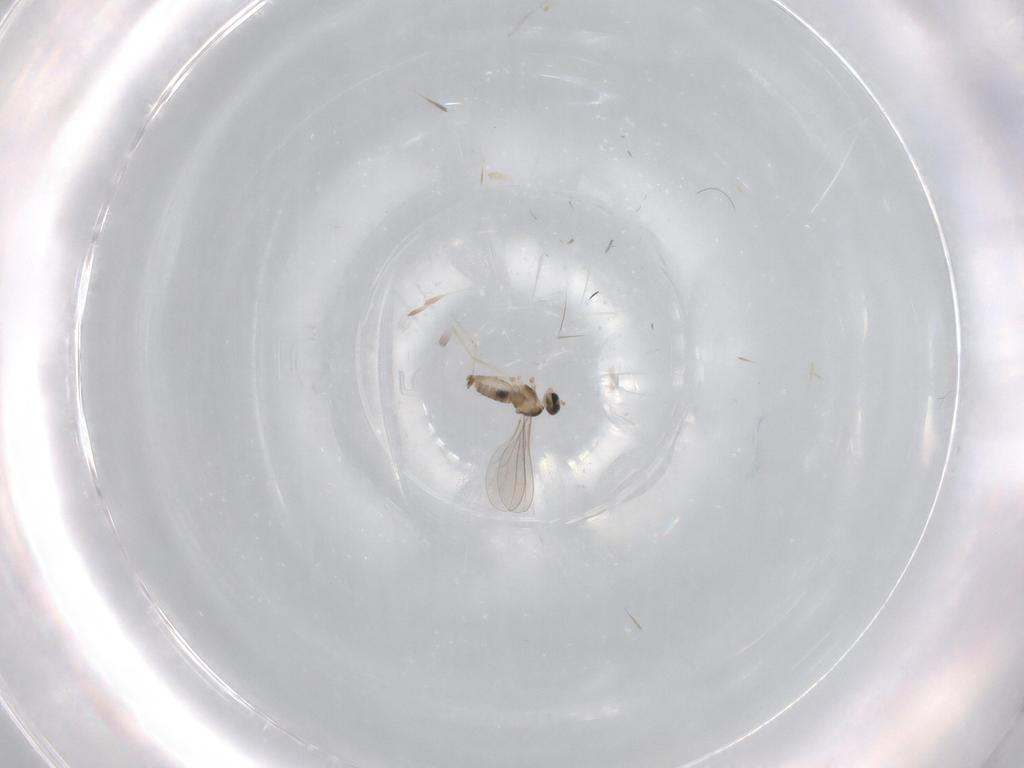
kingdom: Animalia
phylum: Arthropoda
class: Insecta
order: Diptera
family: Cecidomyiidae
